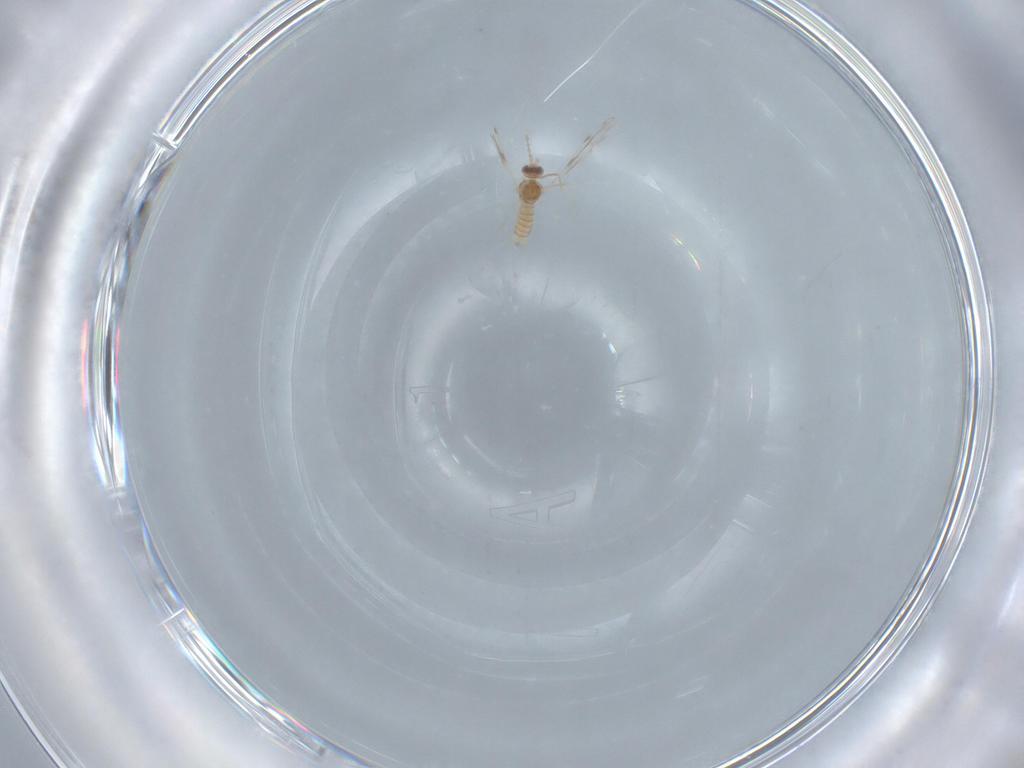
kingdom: Animalia
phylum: Arthropoda
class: Insecta
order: Diptera
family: Cecidomyiidae
